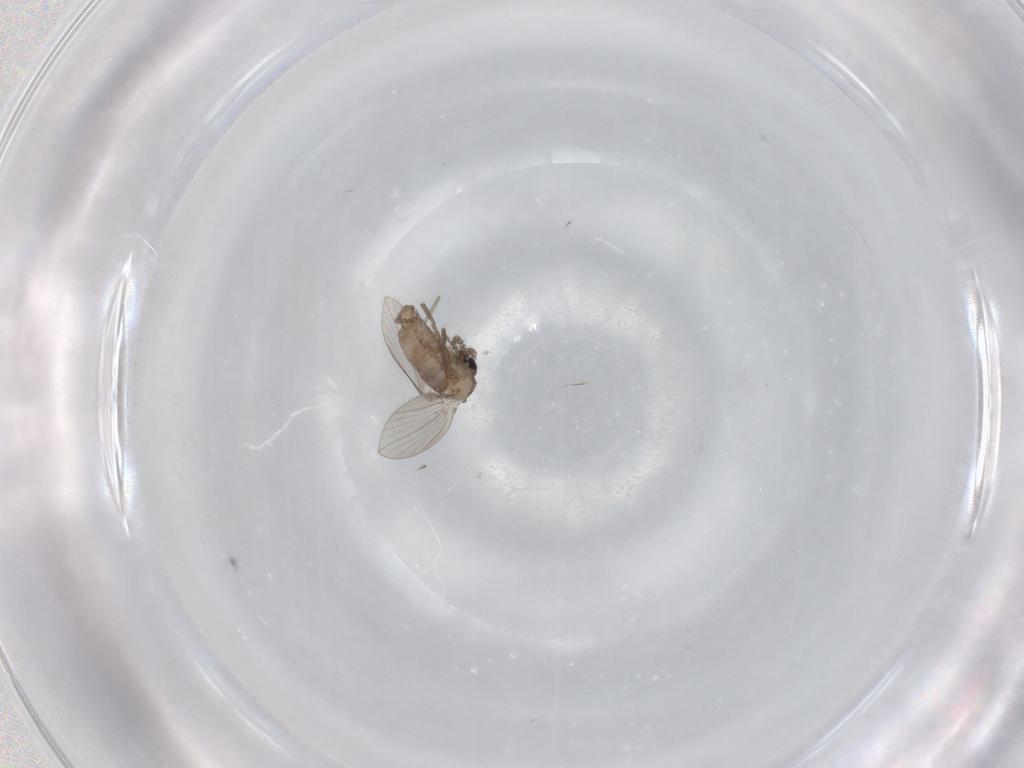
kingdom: Animalia
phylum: Arthropoda
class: Insecta
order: Diptera
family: Psychodidae
